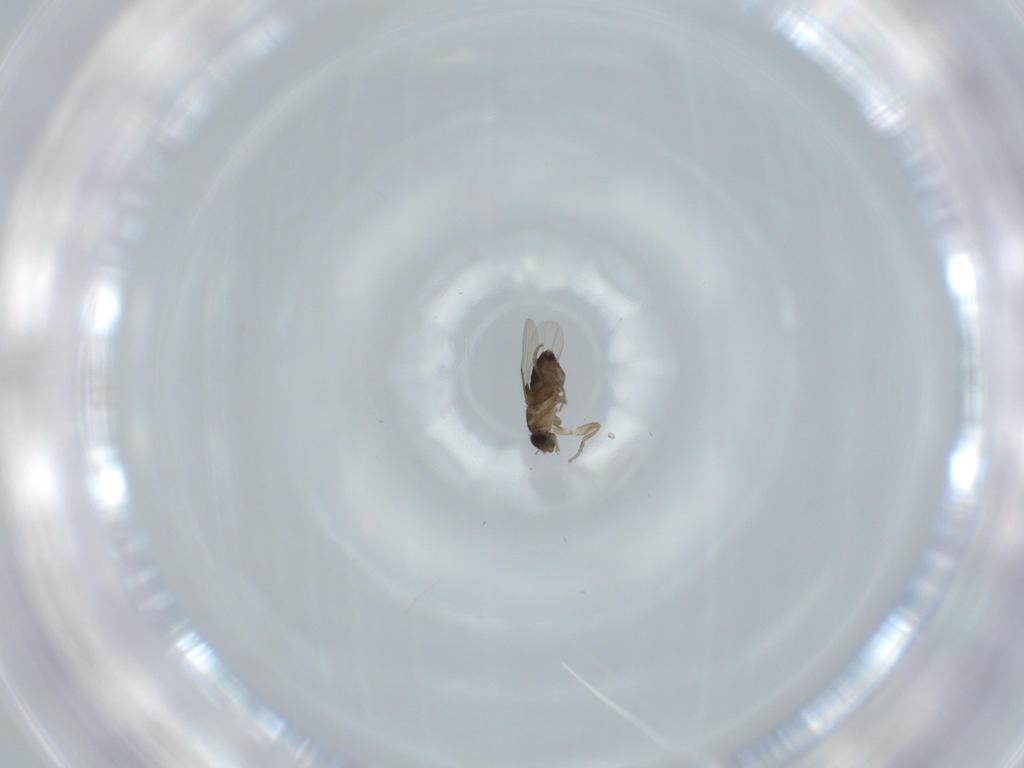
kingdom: Animalia
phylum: Arthropoda
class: Insecta
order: Diptera
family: Phoridae
